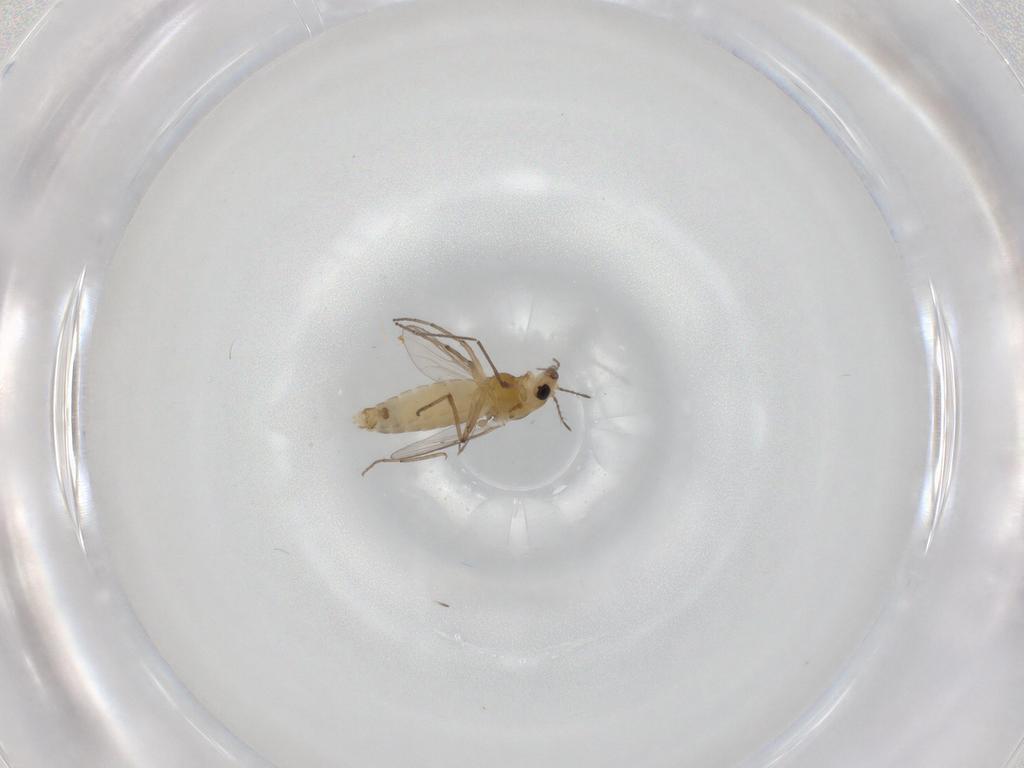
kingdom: Animalia
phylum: Arthropoda
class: Insecta
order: Diptera
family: Chironomidae
